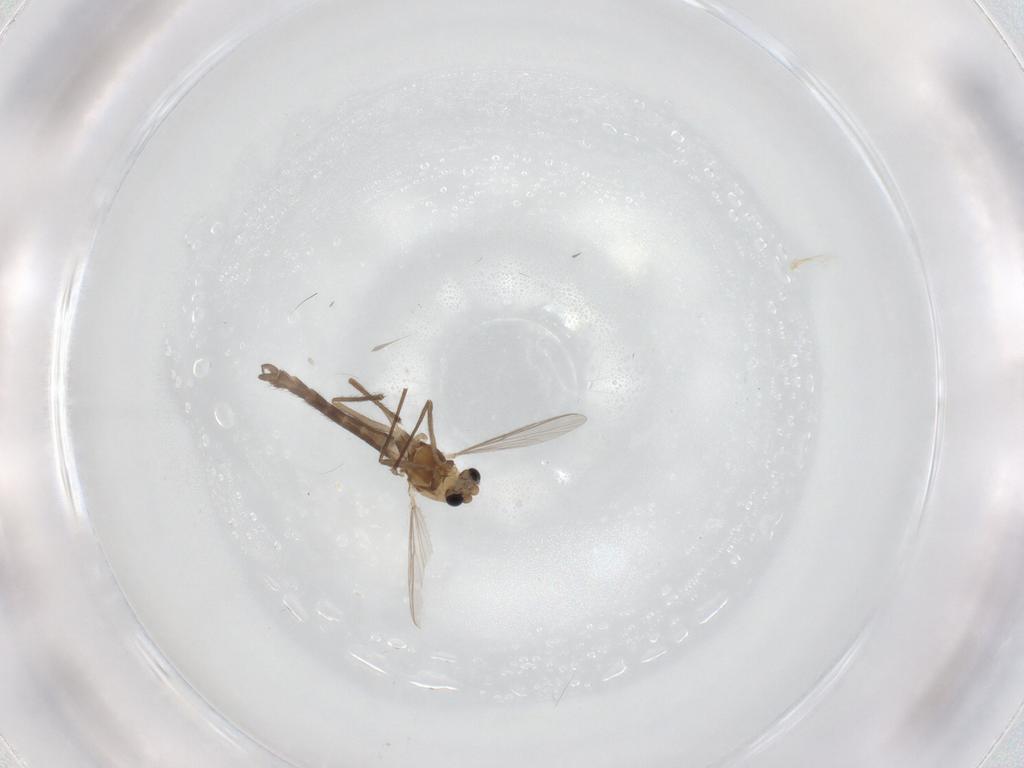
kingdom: Animalia
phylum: Arthropoda
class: Insecta
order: Diptera
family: Chironomidae
